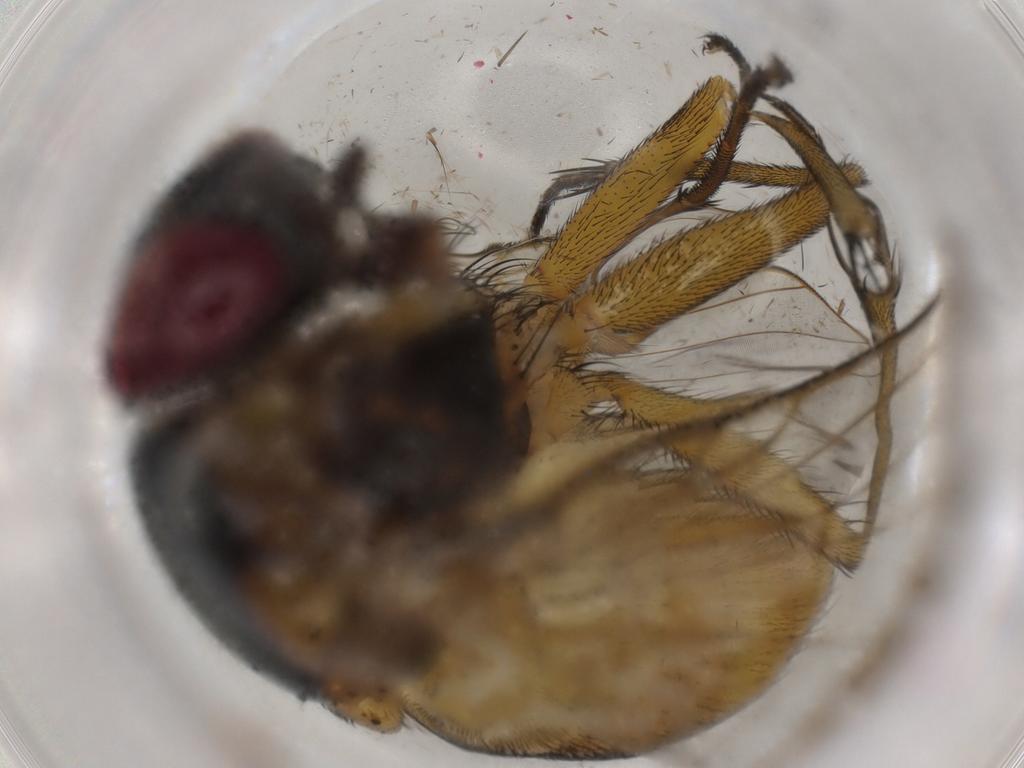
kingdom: Animalia
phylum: Arthropoda
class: Insecta
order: Diptera
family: Muscidae
